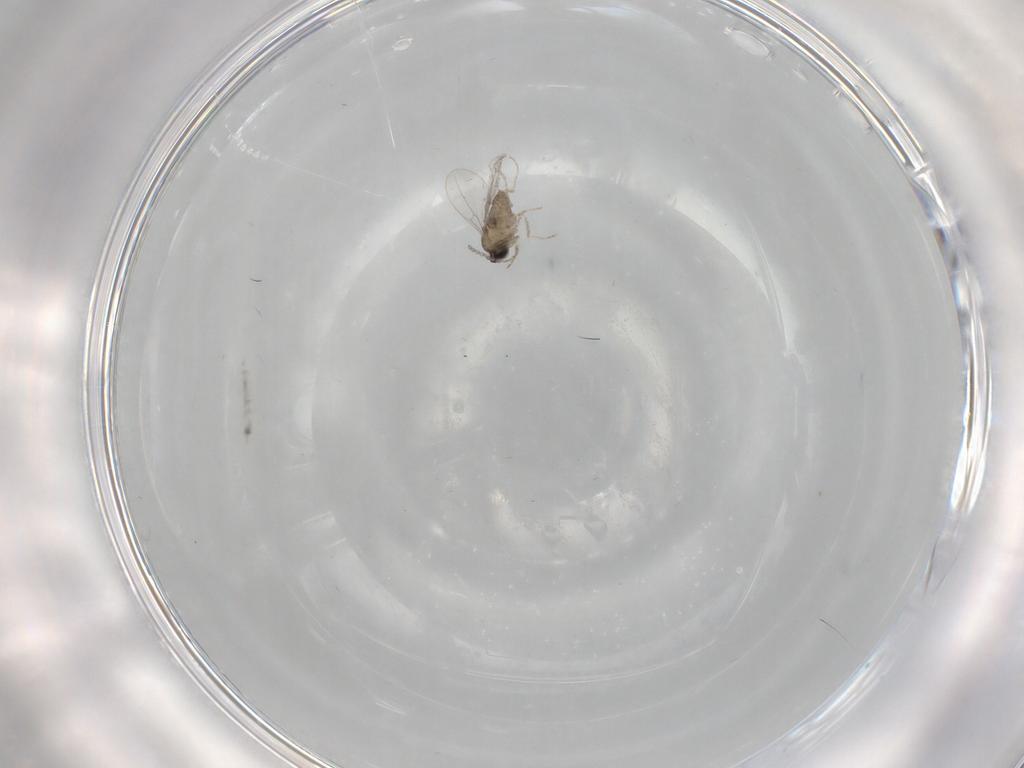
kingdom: Animalia
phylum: Arthropoda
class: Insecta
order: Diptera
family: Cecidomyiidae
